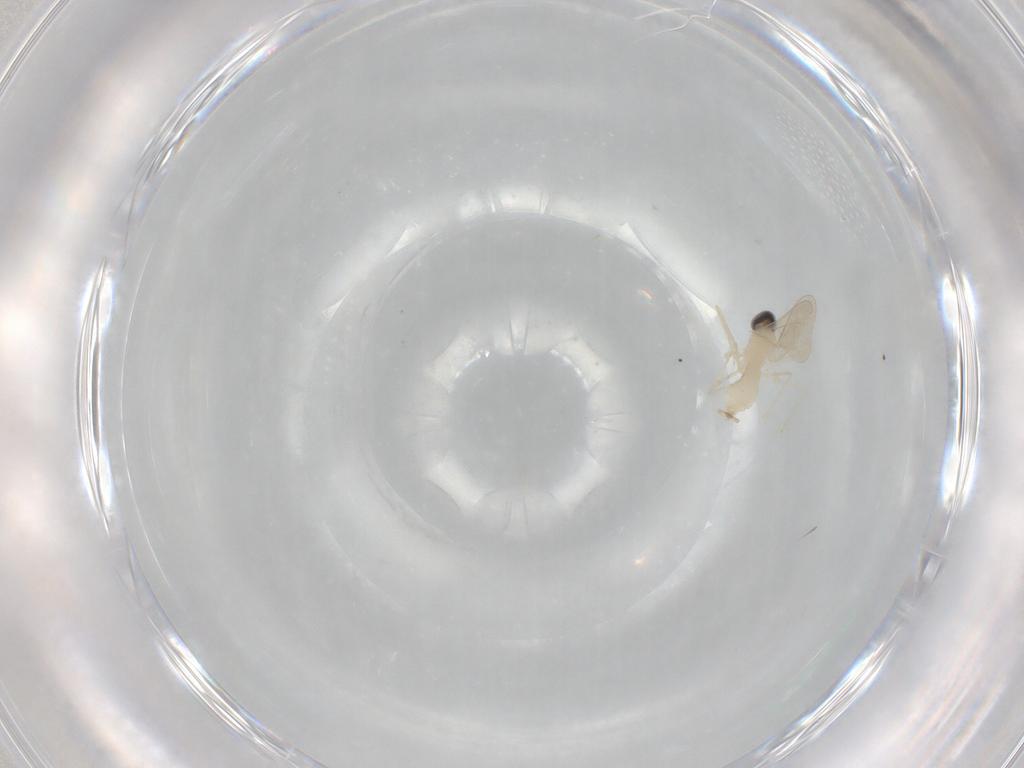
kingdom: Animalia
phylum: Arthropoda
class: Insecta
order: Diptera
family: Cecidomyiidae
